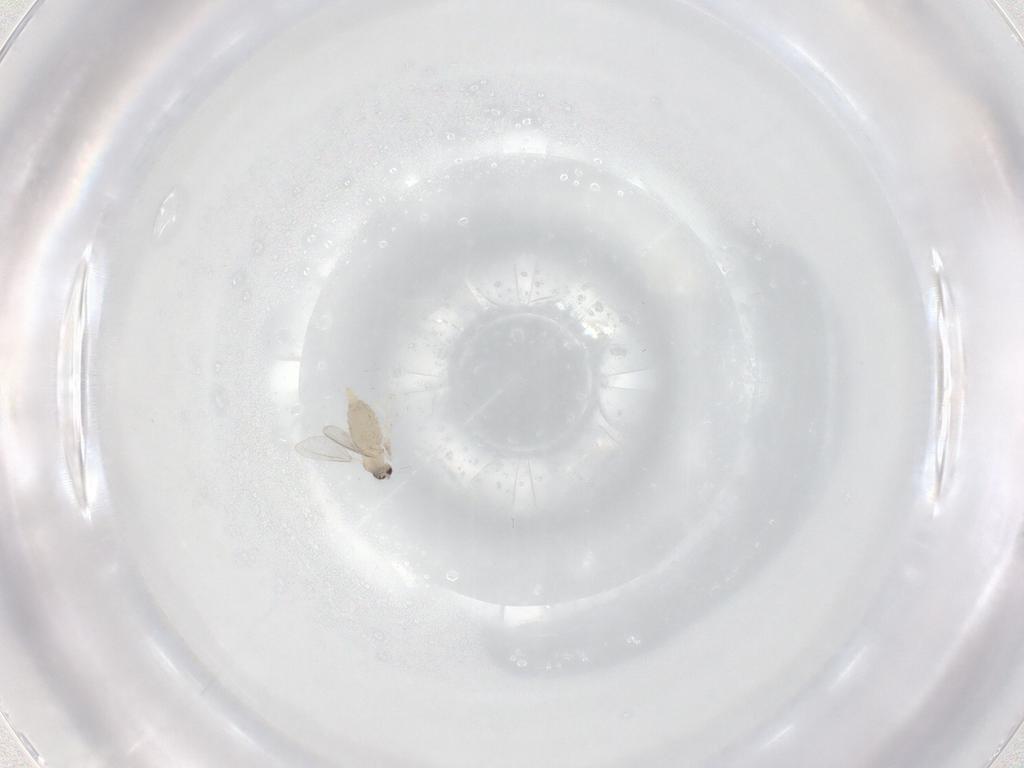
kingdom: Animalia
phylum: Arthropoda
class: Insecta
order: Diptera
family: Cecidomyiidae
